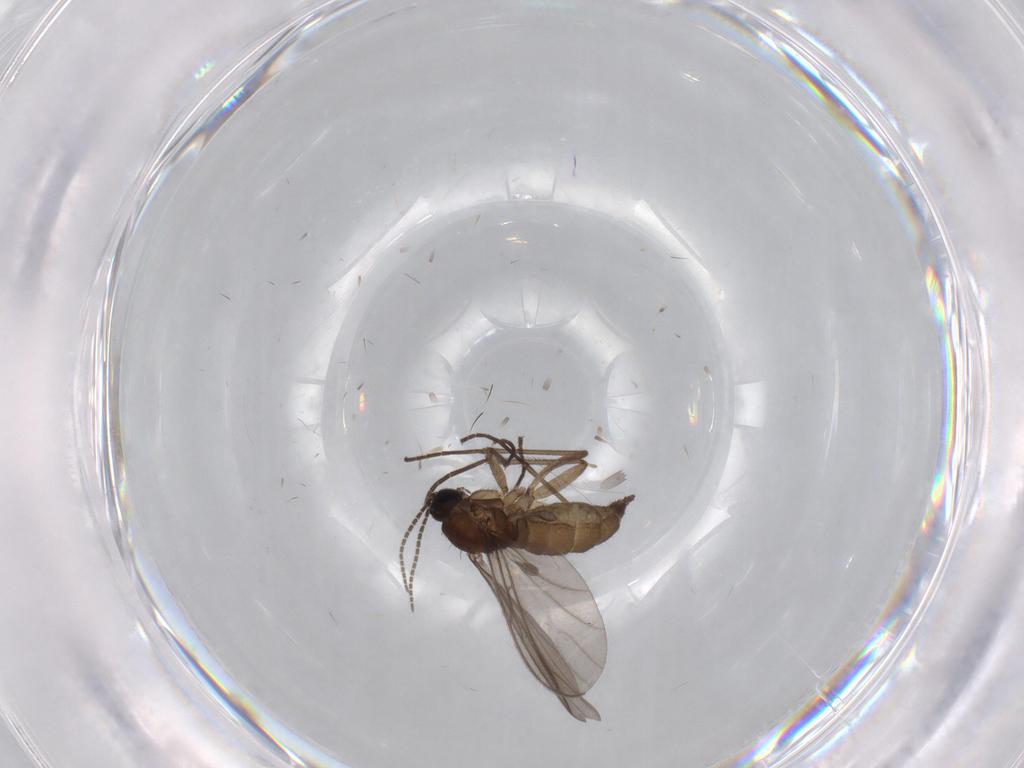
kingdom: Animalia
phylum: Arthropoda
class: Insecta
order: Diptera
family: Sciaridae
